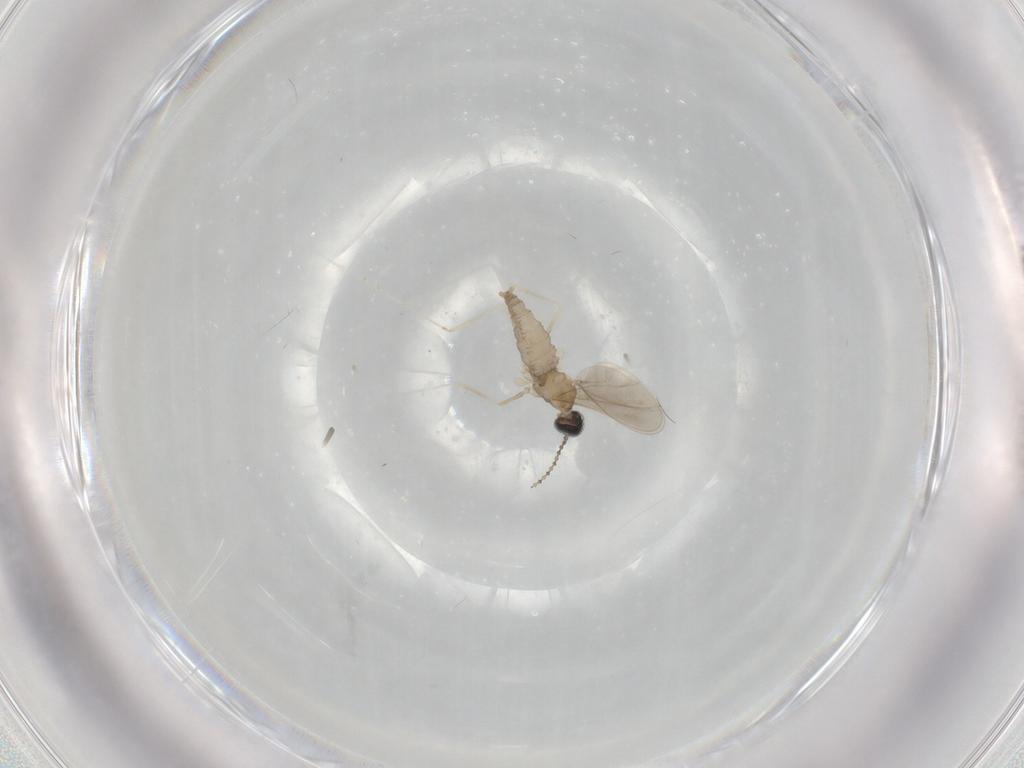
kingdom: Animalia
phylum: Arthropoda
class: Insecta
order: Diptera
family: Cecidomyiidae
